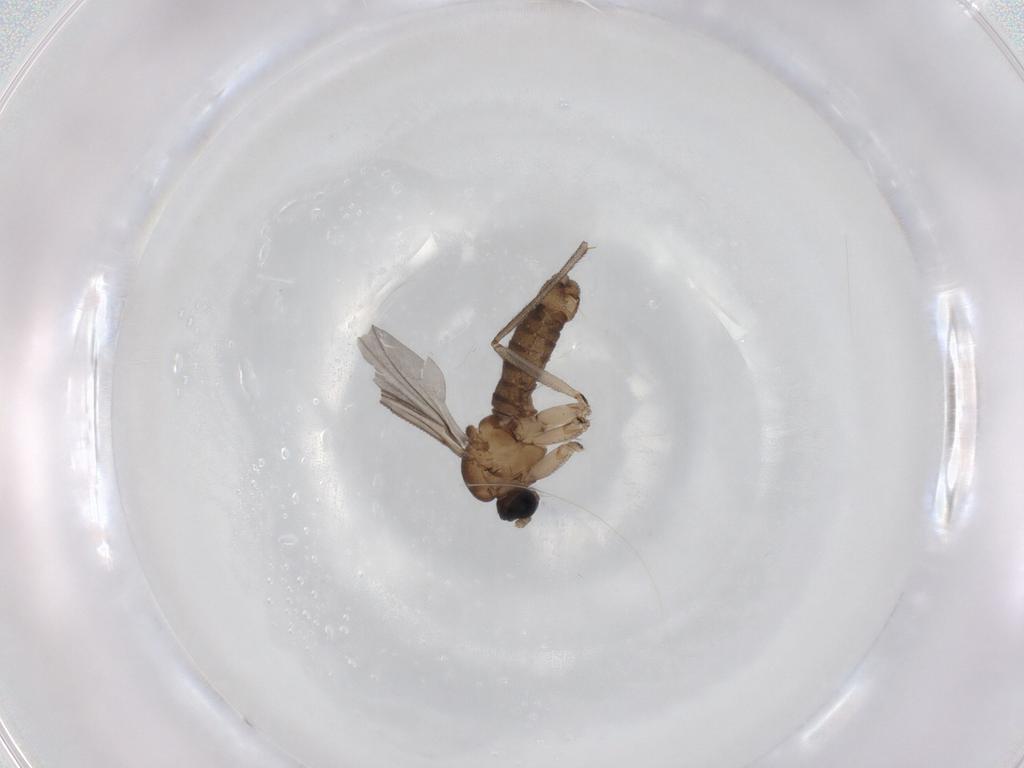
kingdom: Animalia
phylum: Arthropoda
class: Insecta
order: Diptera
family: Sciaridae
